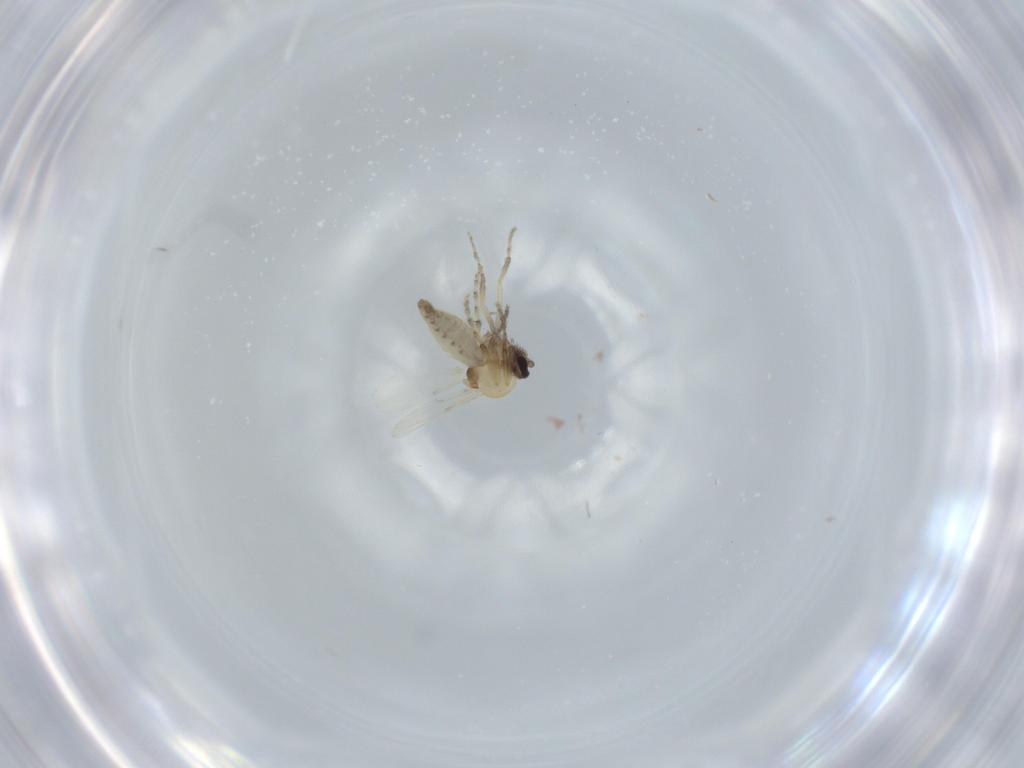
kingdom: Animalia
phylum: Arthropoda
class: Insecta
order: Diptera
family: Ceratopogonidae
